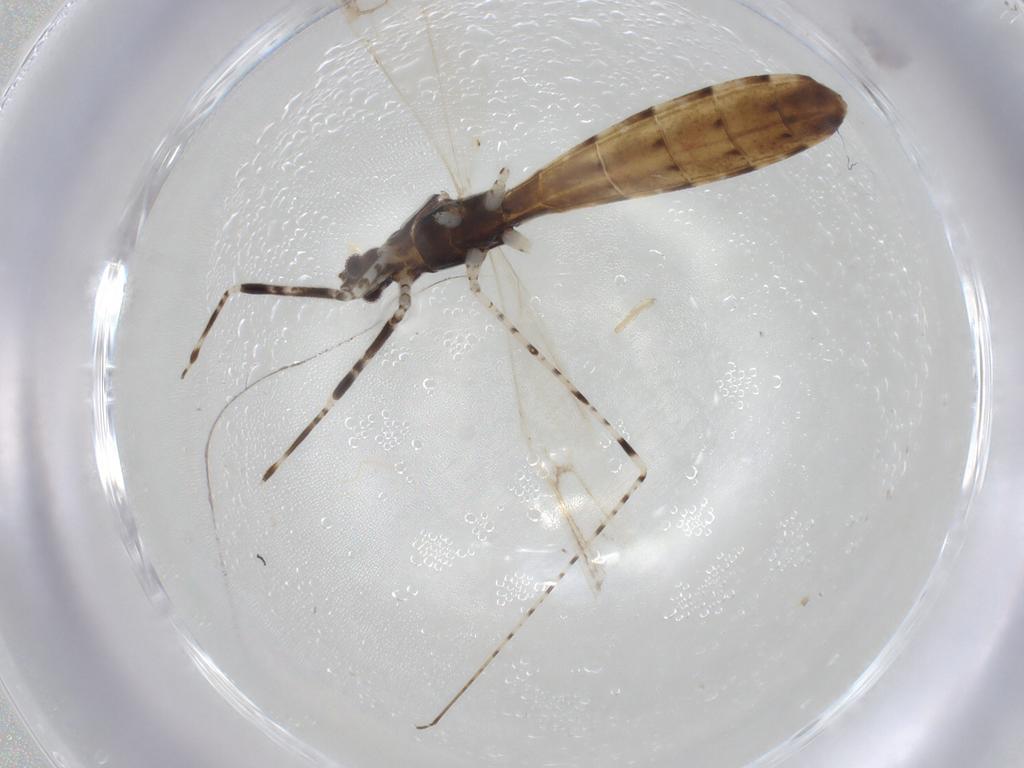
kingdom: Animalia
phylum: Arthropoda
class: Insecta
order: Hemiptera
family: Reduviidae
